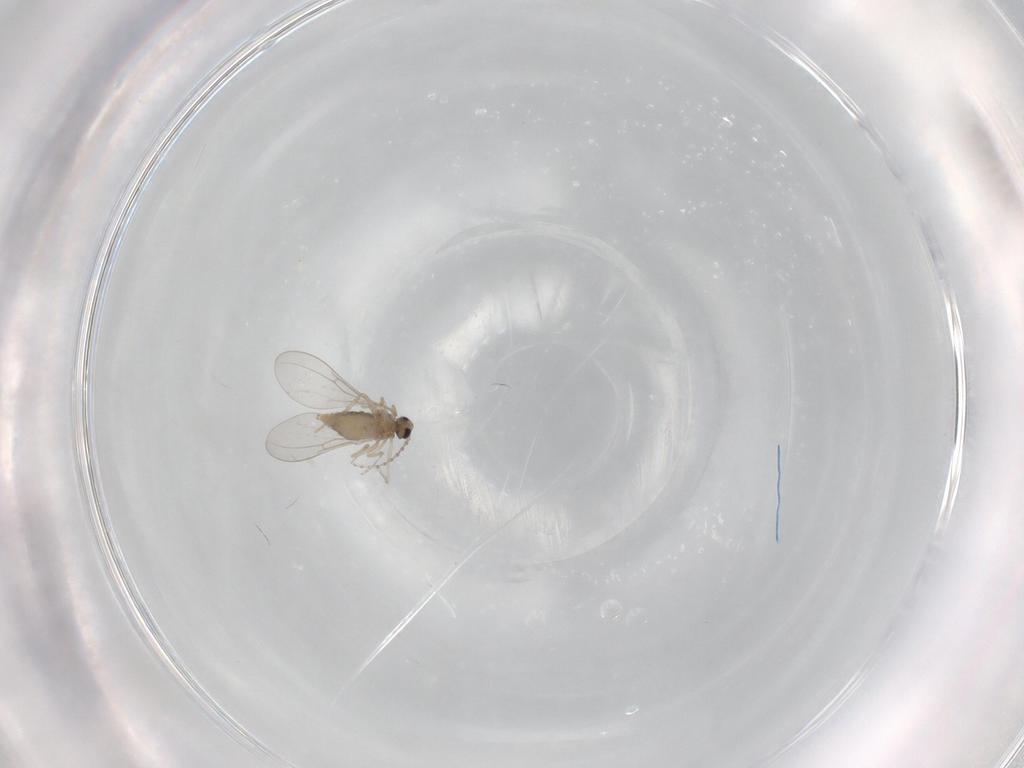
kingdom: Animalia
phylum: Arthropoda
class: Insecta
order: Diptera
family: Cecidomyiidae
